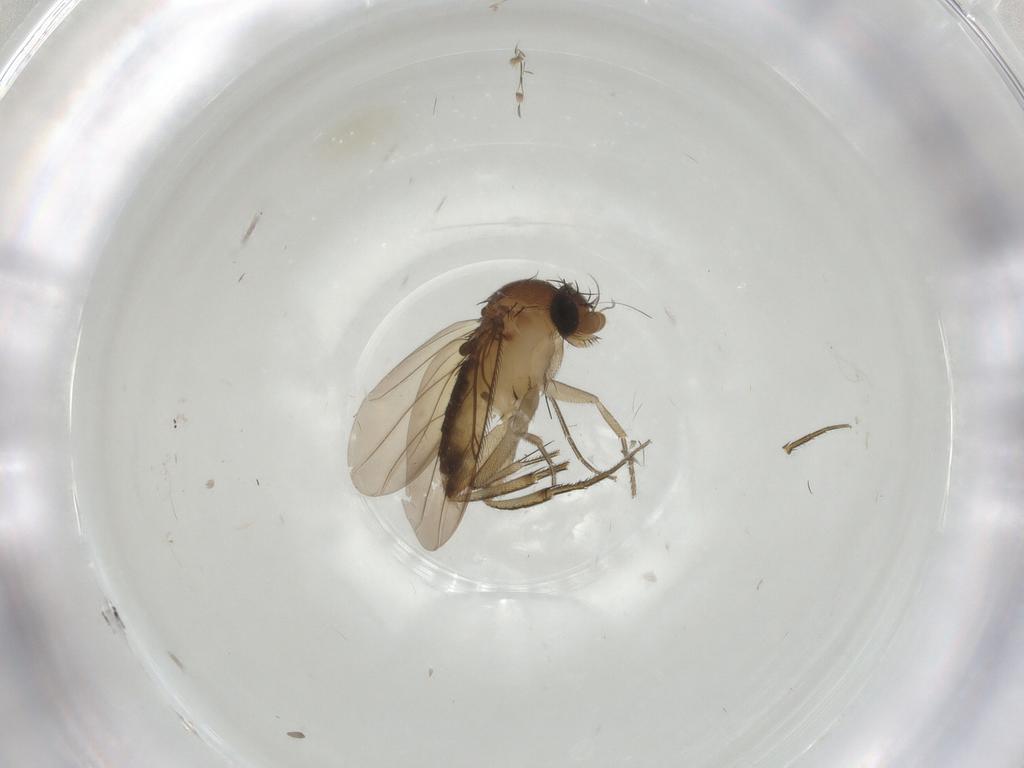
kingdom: Animalia
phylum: Arthropoda
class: Insecta
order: Diptera
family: Phoridae
